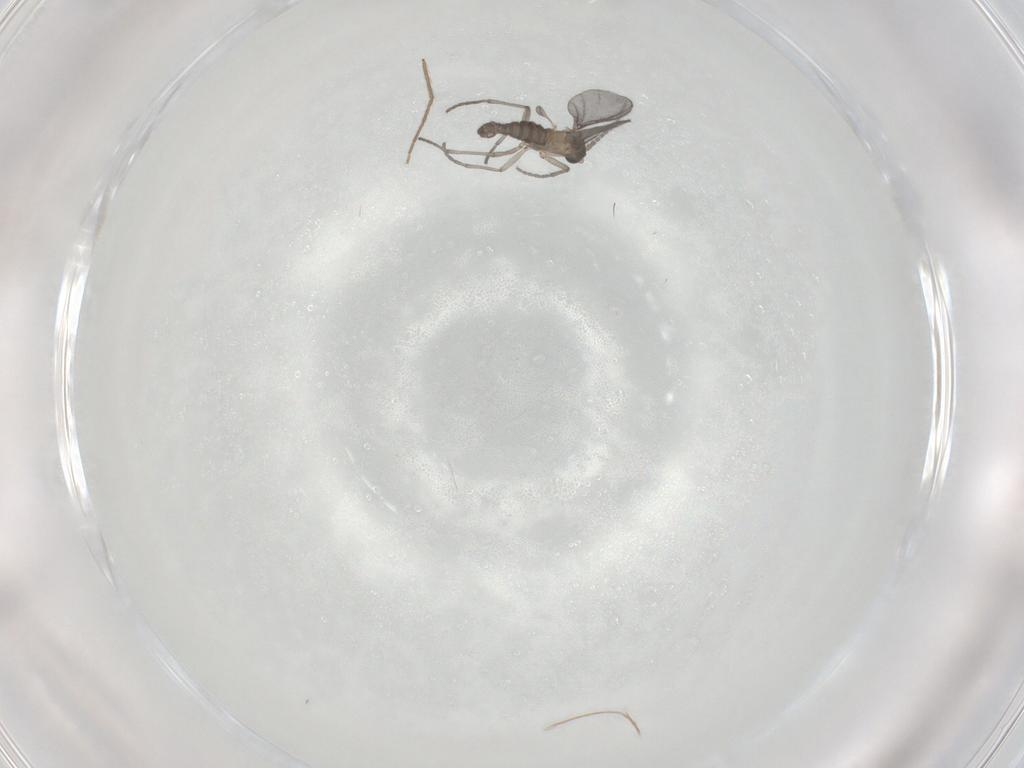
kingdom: Animalia
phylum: Arthropoda
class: Insecta
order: Diptera
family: Sciaridae
